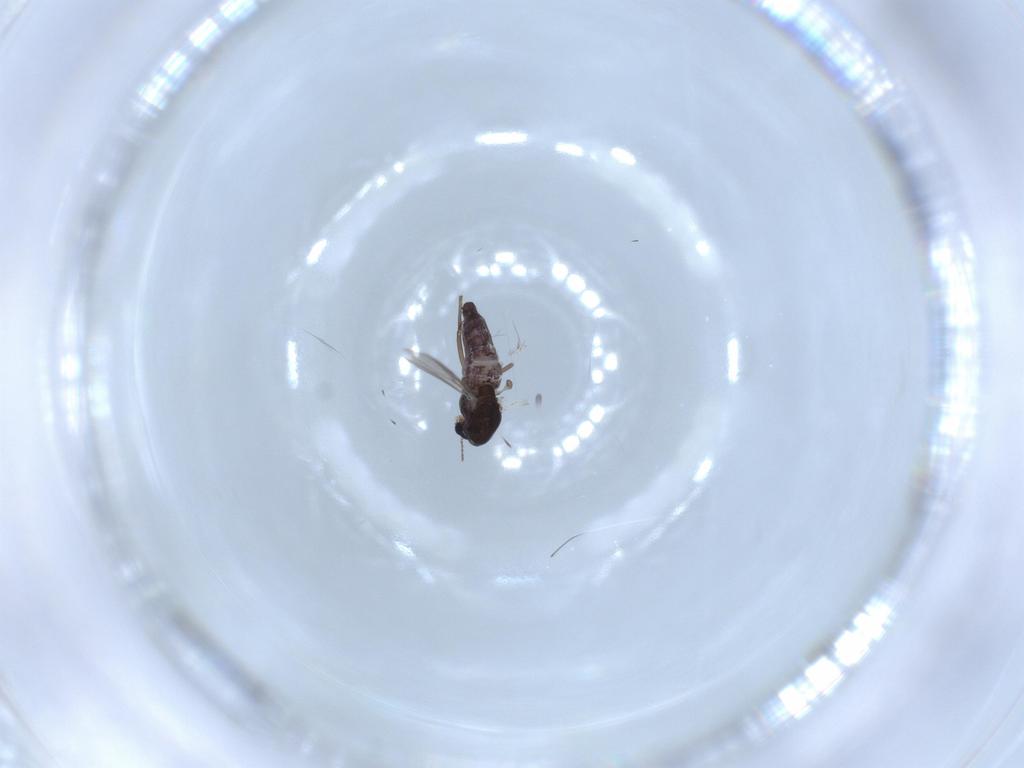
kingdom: Animalia
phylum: Arthropoda
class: Insecta
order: Diptera
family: Chironomidae
